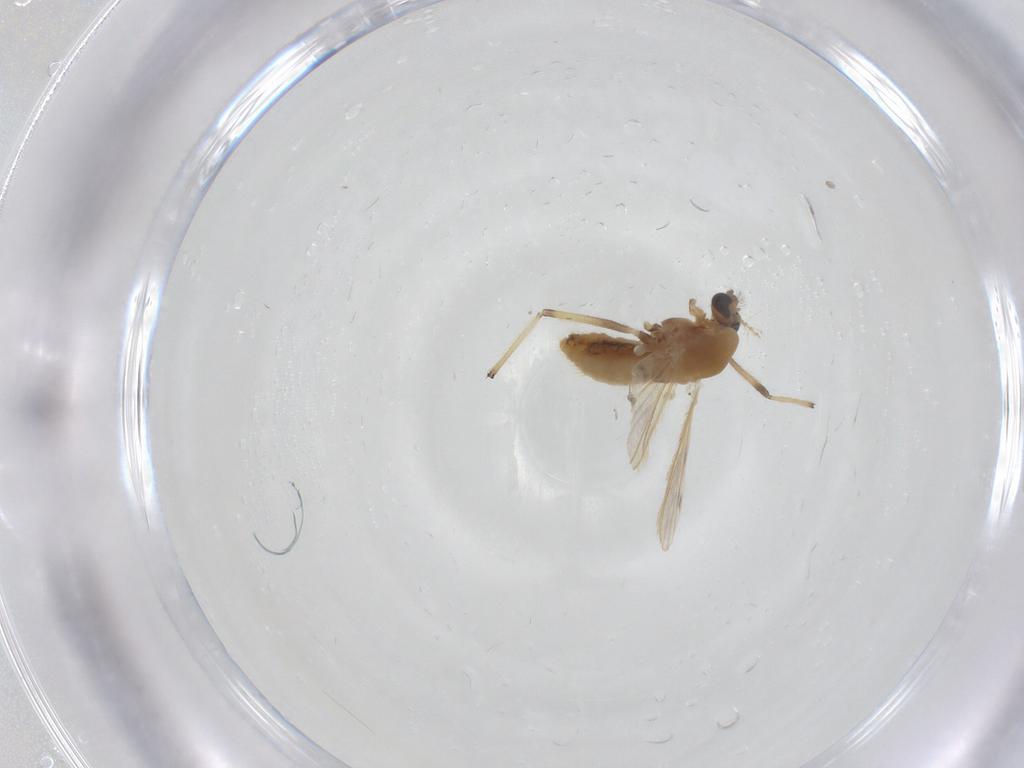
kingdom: Animalia
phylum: Arthropoda
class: Insecta
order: Diptera
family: Chironomidae
